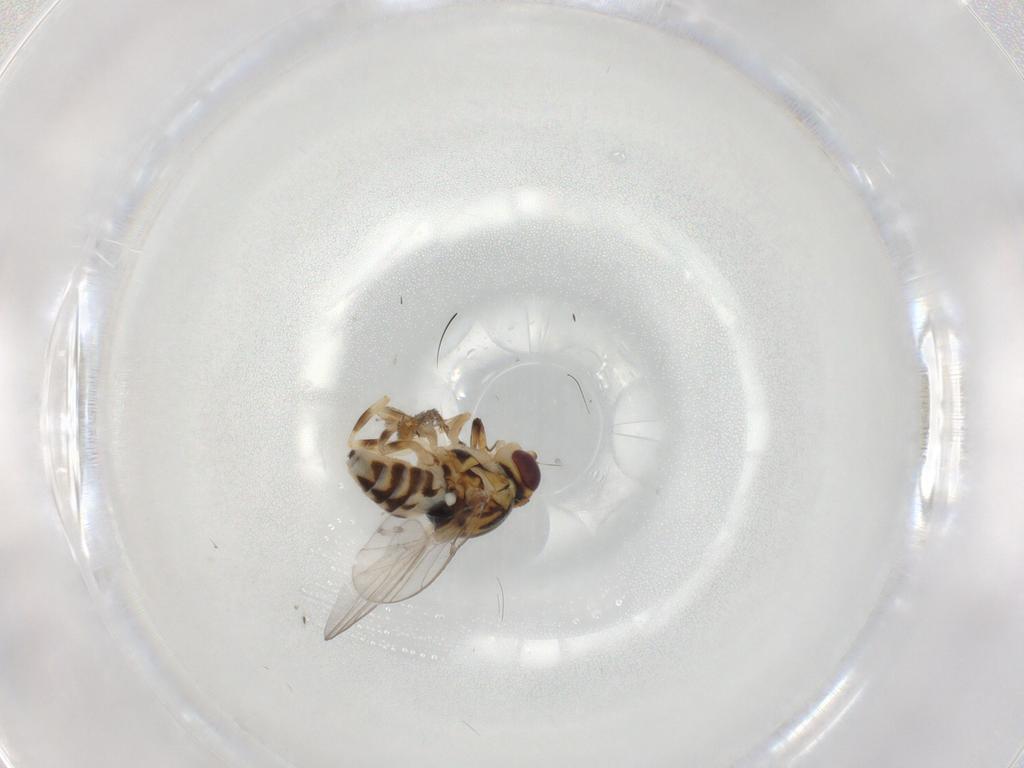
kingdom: Animalia
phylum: Arthropoda
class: Insecta
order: Diptera
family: Chloropidae
